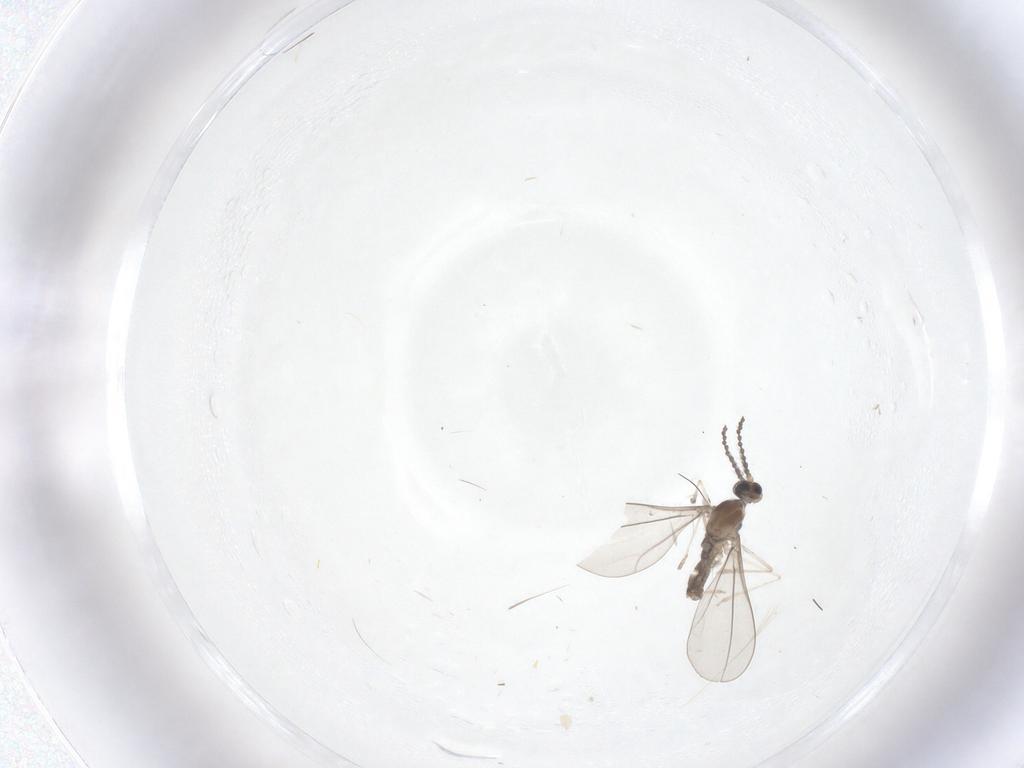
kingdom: Animalia
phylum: Arthropoda
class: Insecta
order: Diptera
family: Cecidomyiidae
